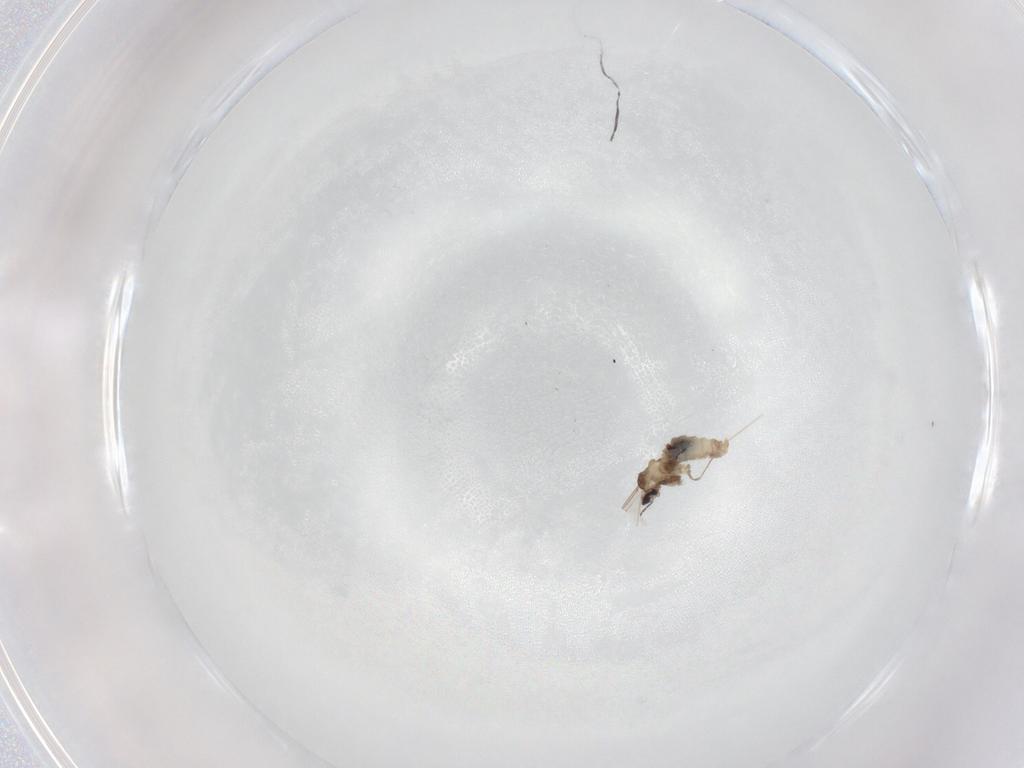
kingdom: Animalia
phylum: Arthropoda
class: Insecta
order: Diptera
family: Cecidomyiidae
